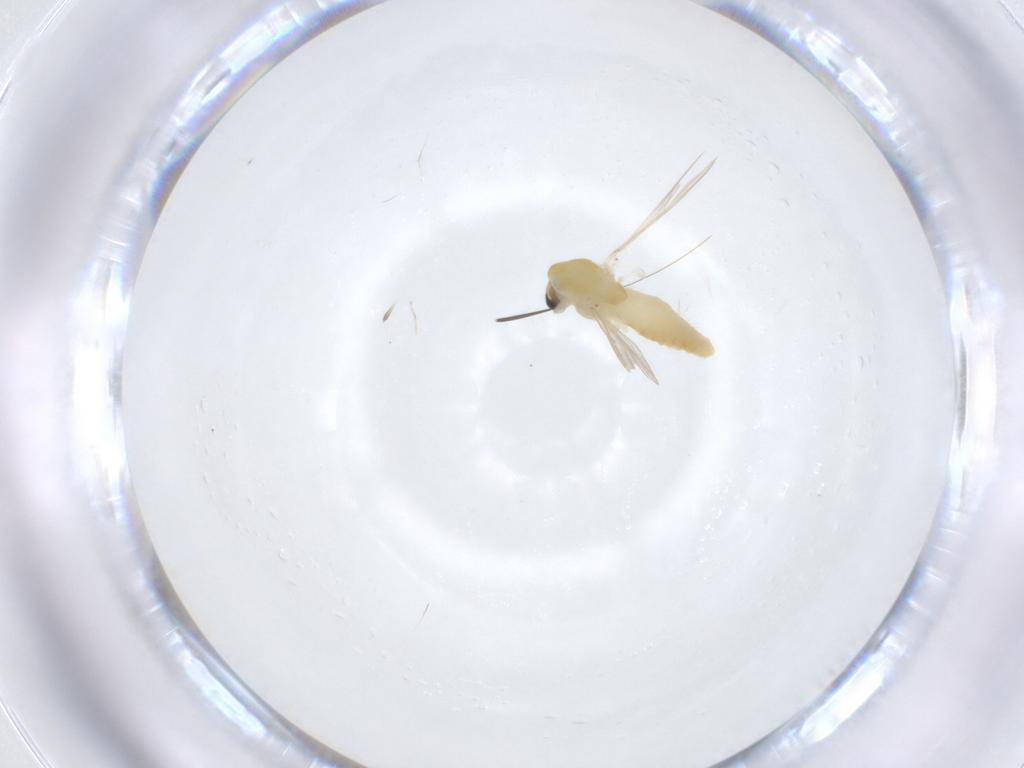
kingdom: Animalia
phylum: Arthropoda
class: Insecta
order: Diptera
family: Chironomidae
